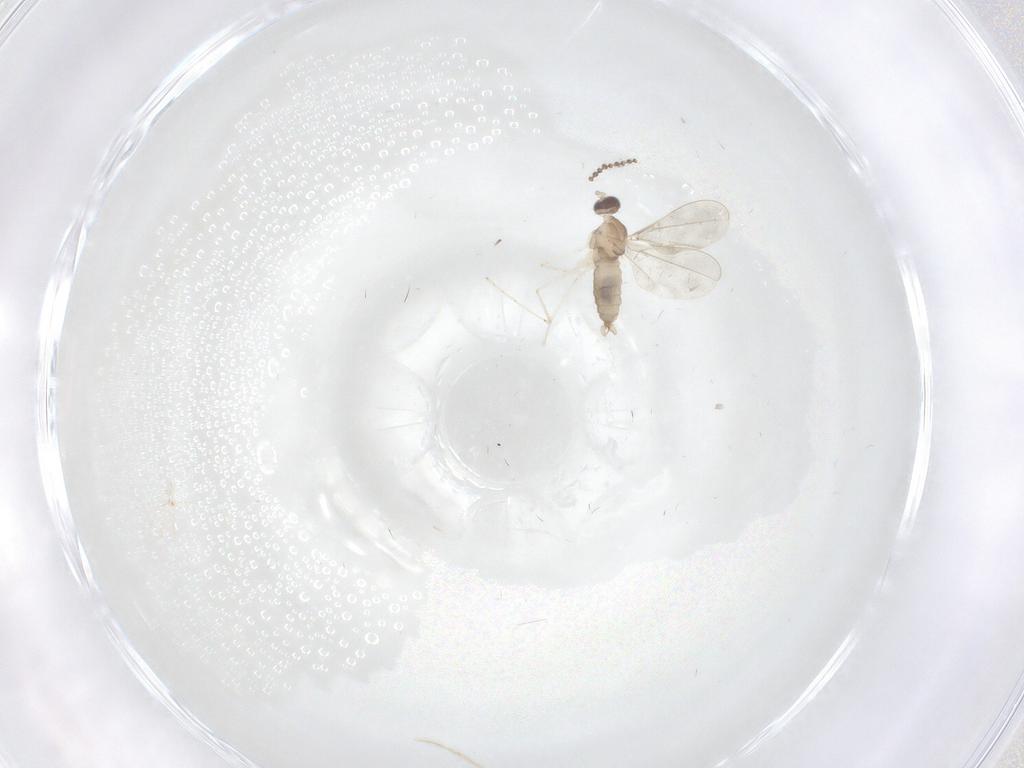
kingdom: Animalia
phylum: Arthropoda
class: Insecta
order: Diptera
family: Cecidomyiidae
